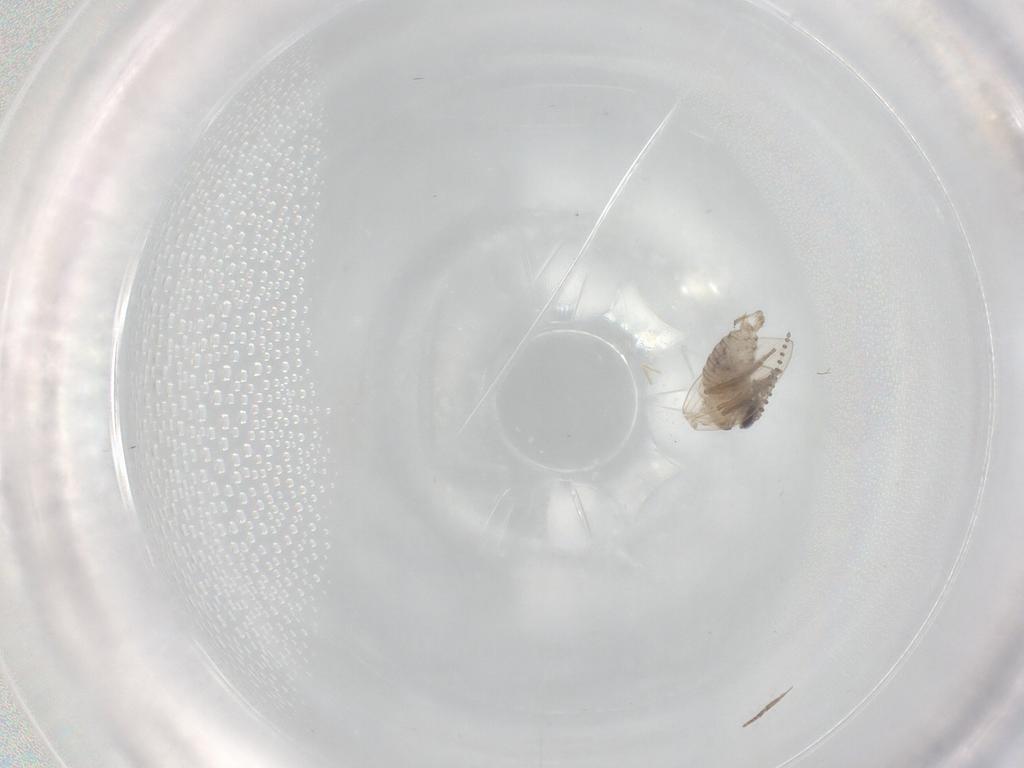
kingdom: Animalia
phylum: Arthropoda
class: Insecta
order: Diptera
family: Psychodidae
